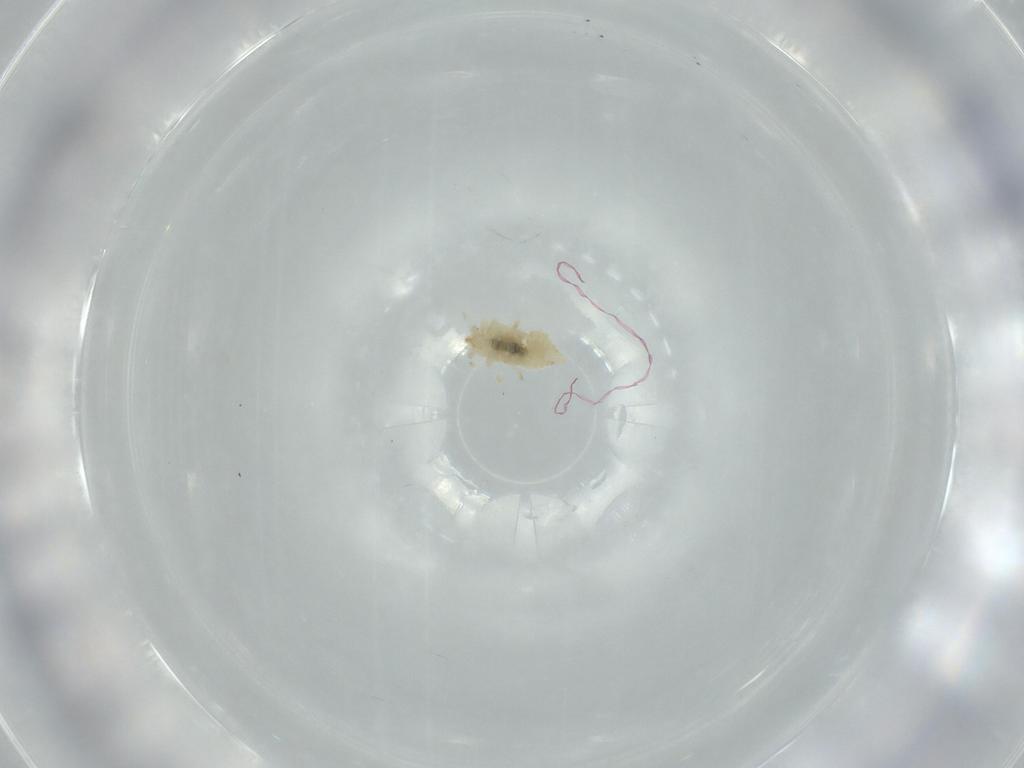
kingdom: Animalia
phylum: Arthropoda
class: Insecta
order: Neuroptera
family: Coniopterygidae
